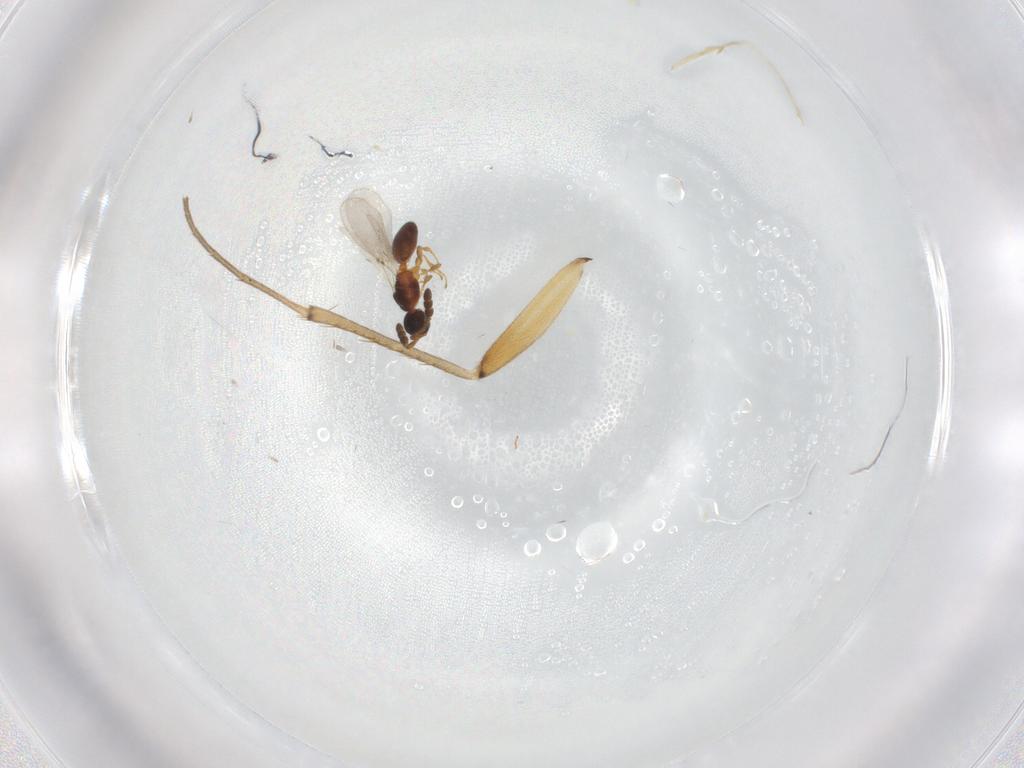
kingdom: Animalia
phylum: Arthropoda
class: Insecta
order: Hymenoptera
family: Diapriidae
